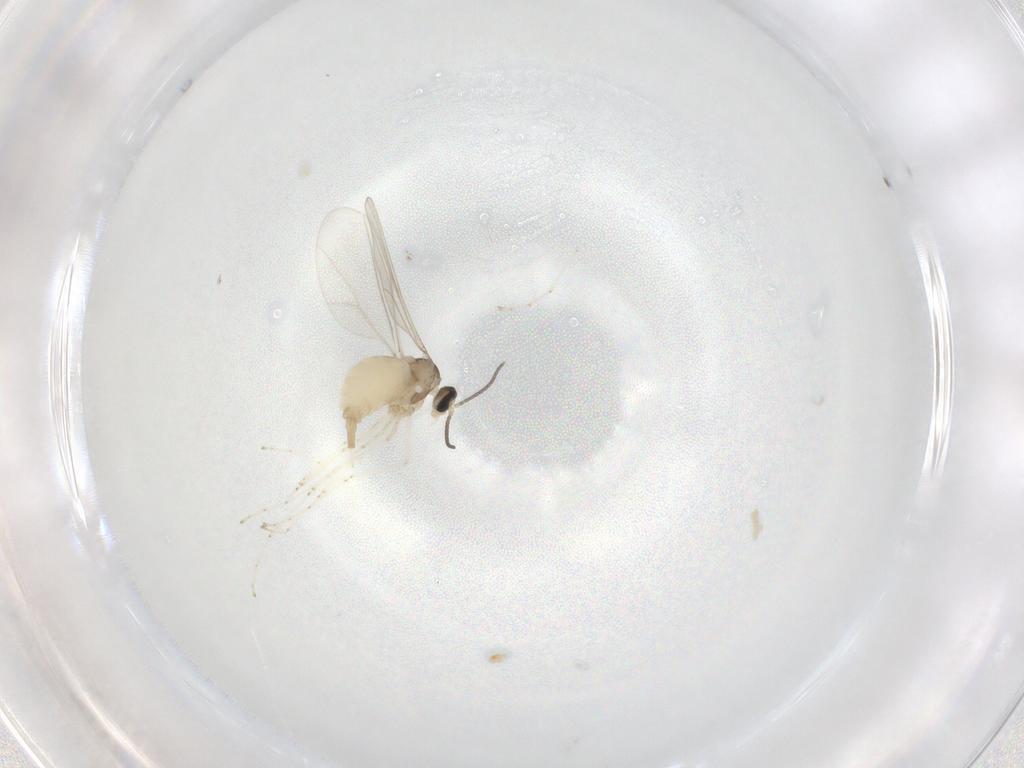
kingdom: Animalia
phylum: Arthropoda
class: Insecta
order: Diptera
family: Cecidomyiidae
